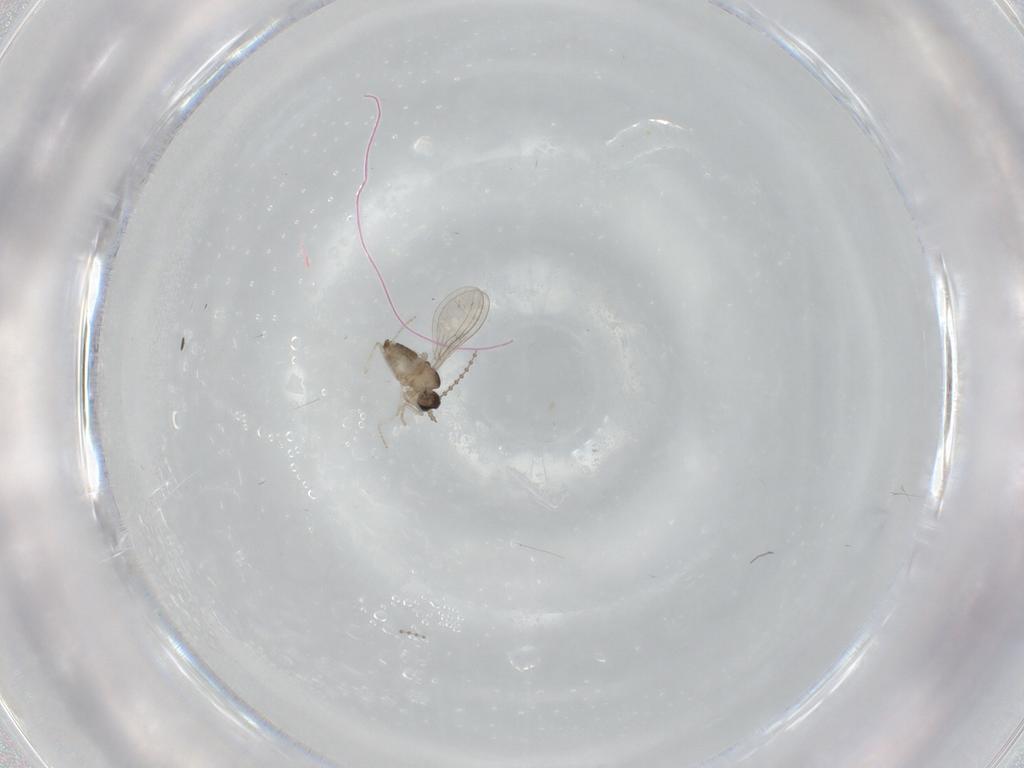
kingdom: Animalia
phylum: Arthropoda
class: Insecta
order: Diptera
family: Cecidomyiidae
